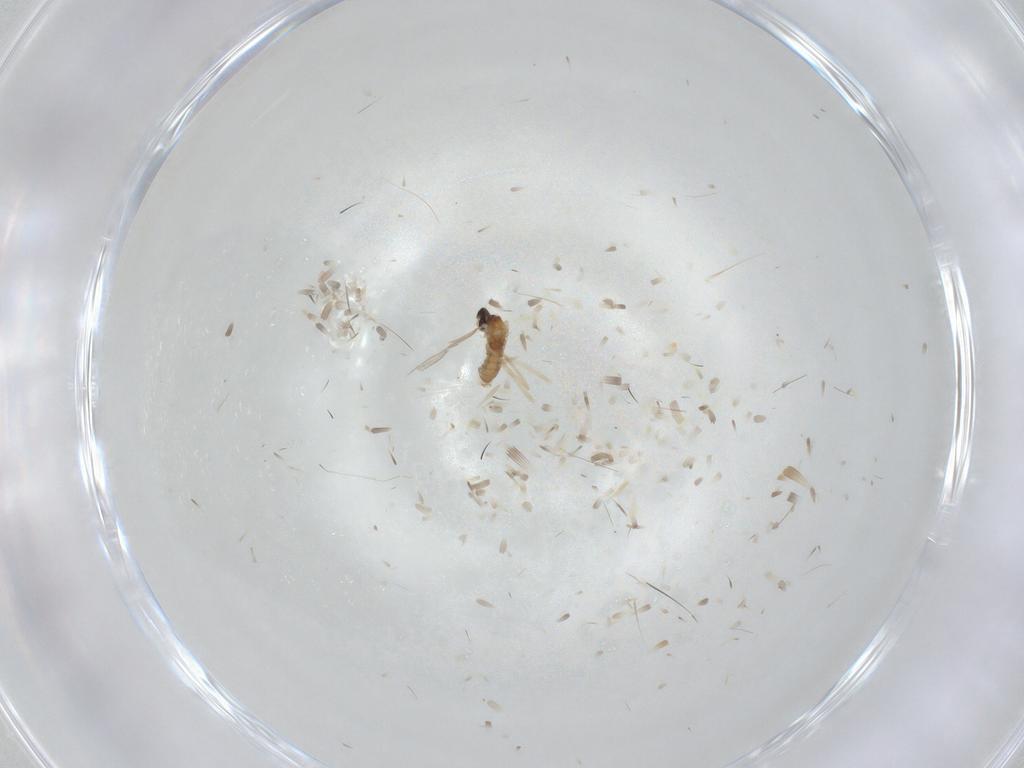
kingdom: Animalia
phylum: Arthropoda
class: Insecta
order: Diptera
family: Cecidomyiidae
